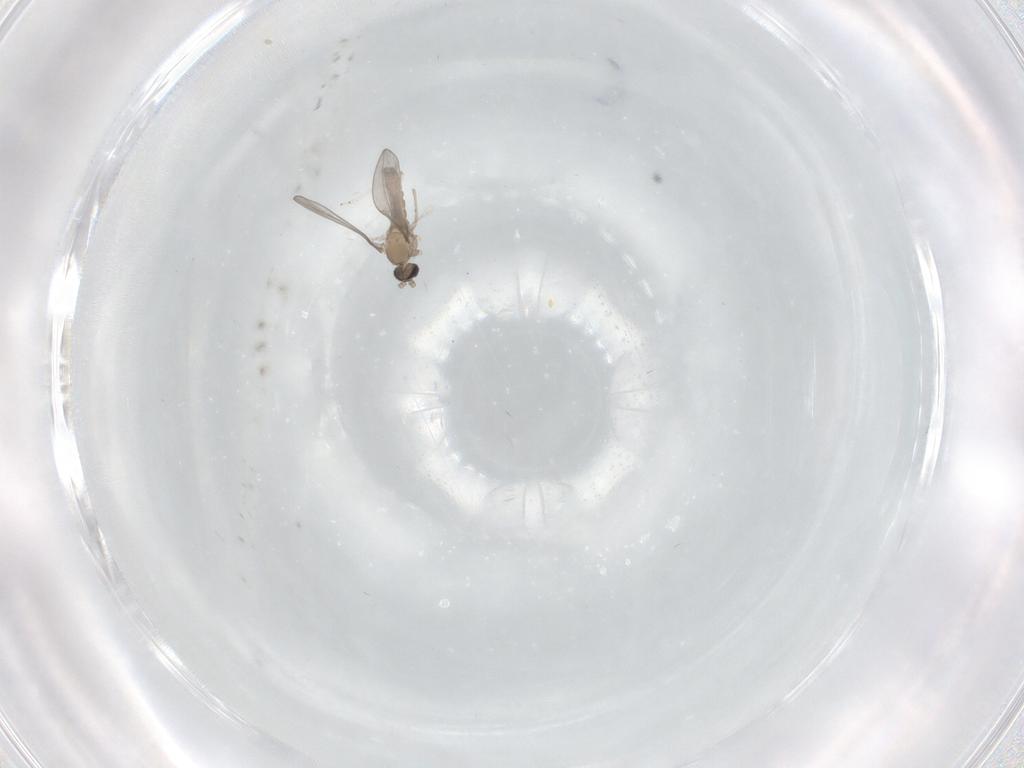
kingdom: Animalia
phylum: Arthropoda
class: Insecta
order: Diptera
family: Cecidomyiidae
